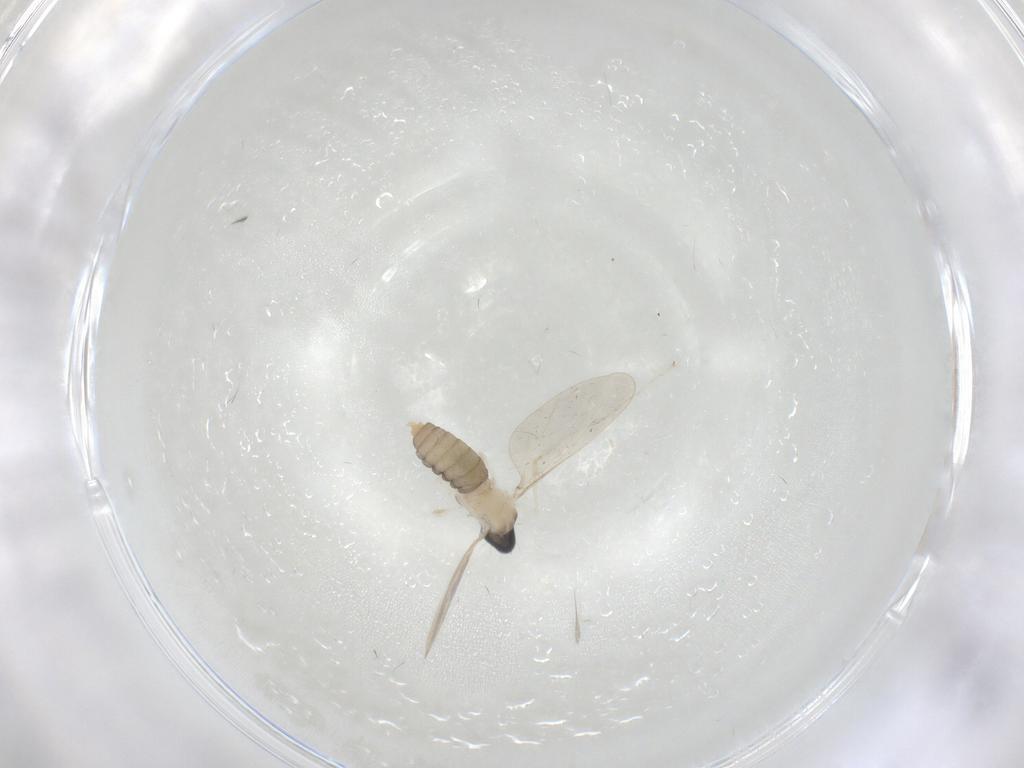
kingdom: Animalia
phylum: Arthropoda
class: Insecta
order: Diptera
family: Cecidomyiidae
